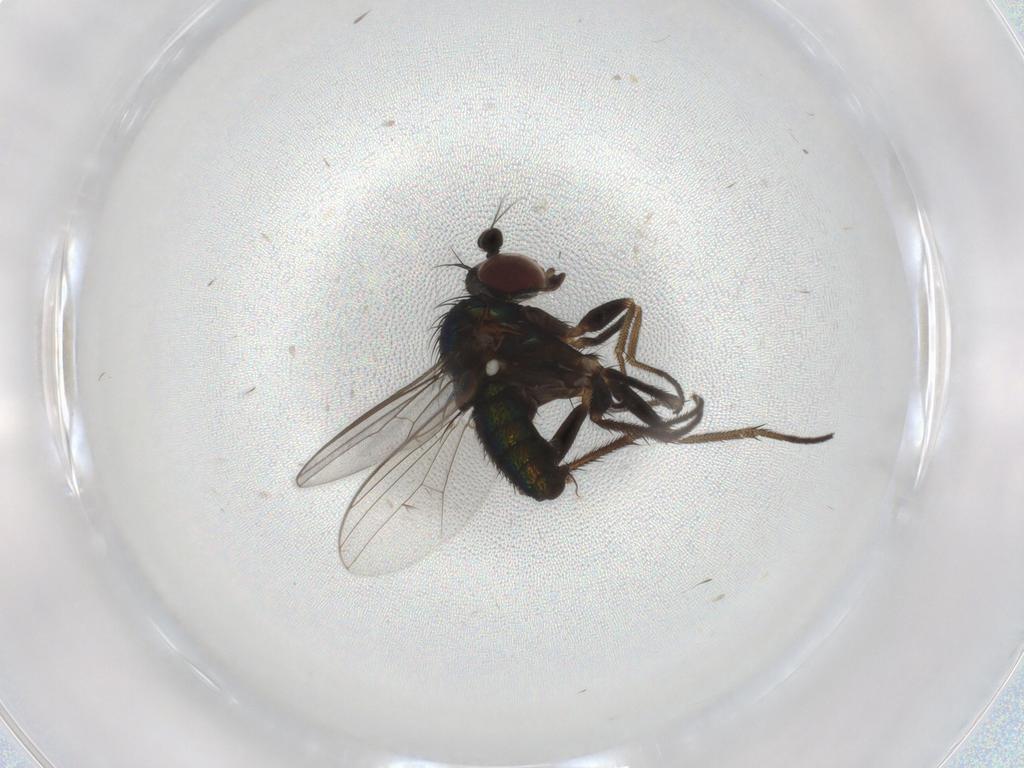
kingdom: Animalia
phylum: Arthropoda
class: Insecta
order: Diptera
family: Dolichopodidae
